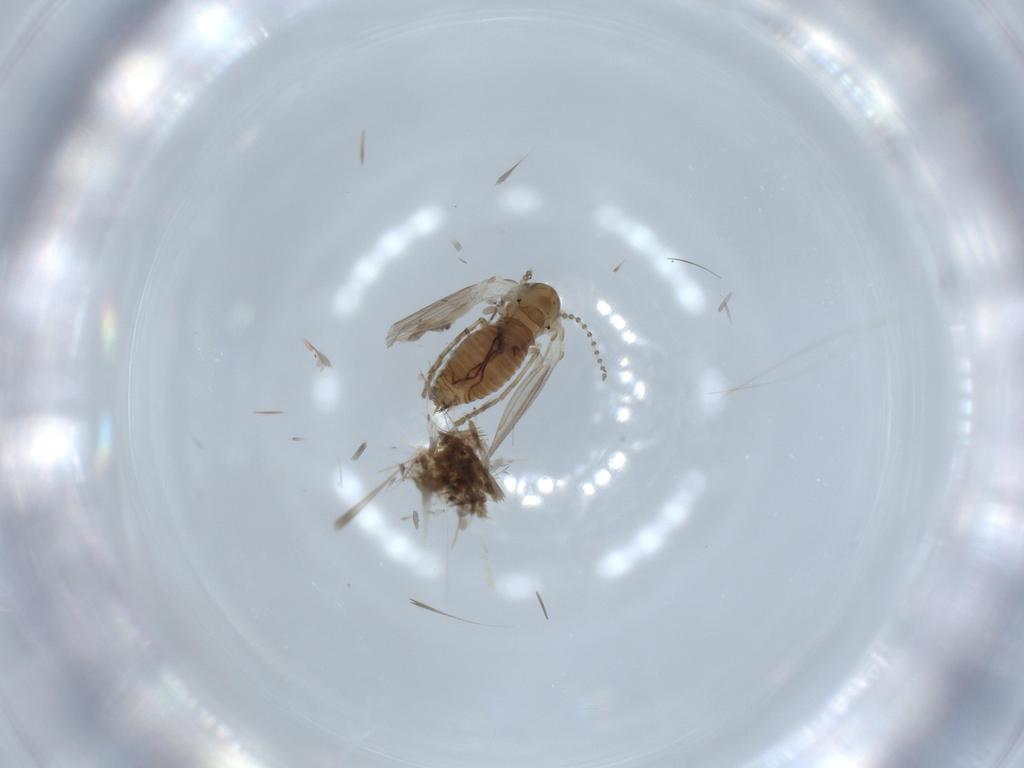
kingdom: Animalia
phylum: Arthropoda
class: Insecta
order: Diptera
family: Psychodidae
